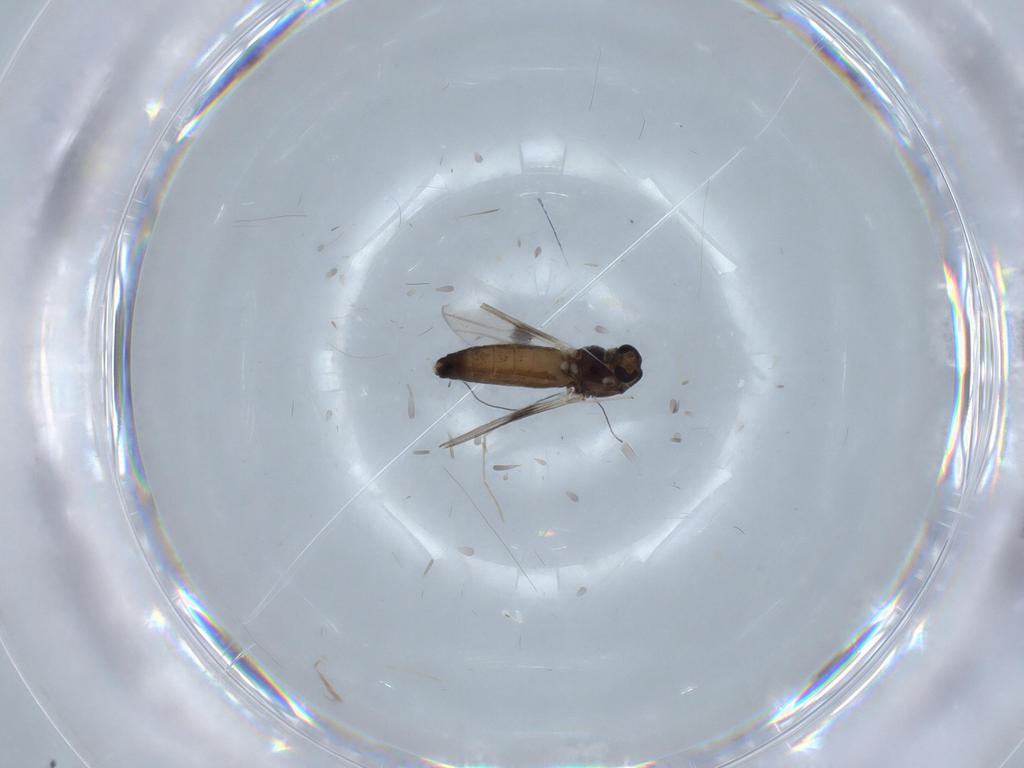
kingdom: Animalia
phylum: Arthropoda
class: Insecta
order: Diptera
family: Chironomidae
